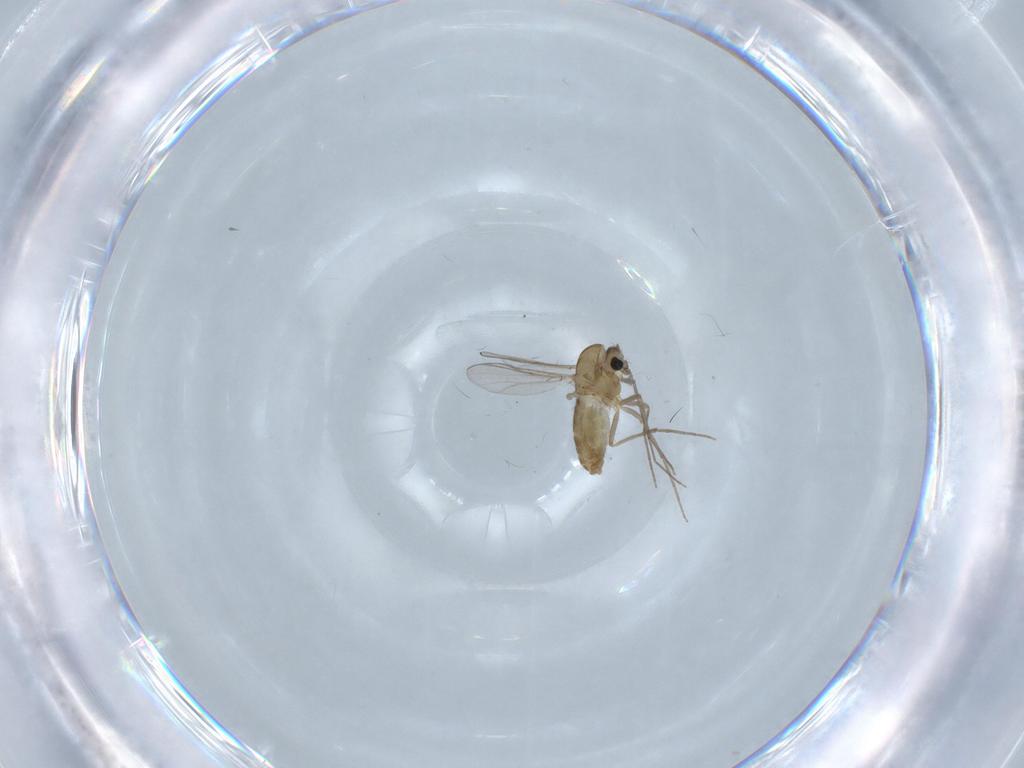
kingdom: Animalia
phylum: Arthropoda
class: Insecta
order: Diptera
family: Chironomidae
